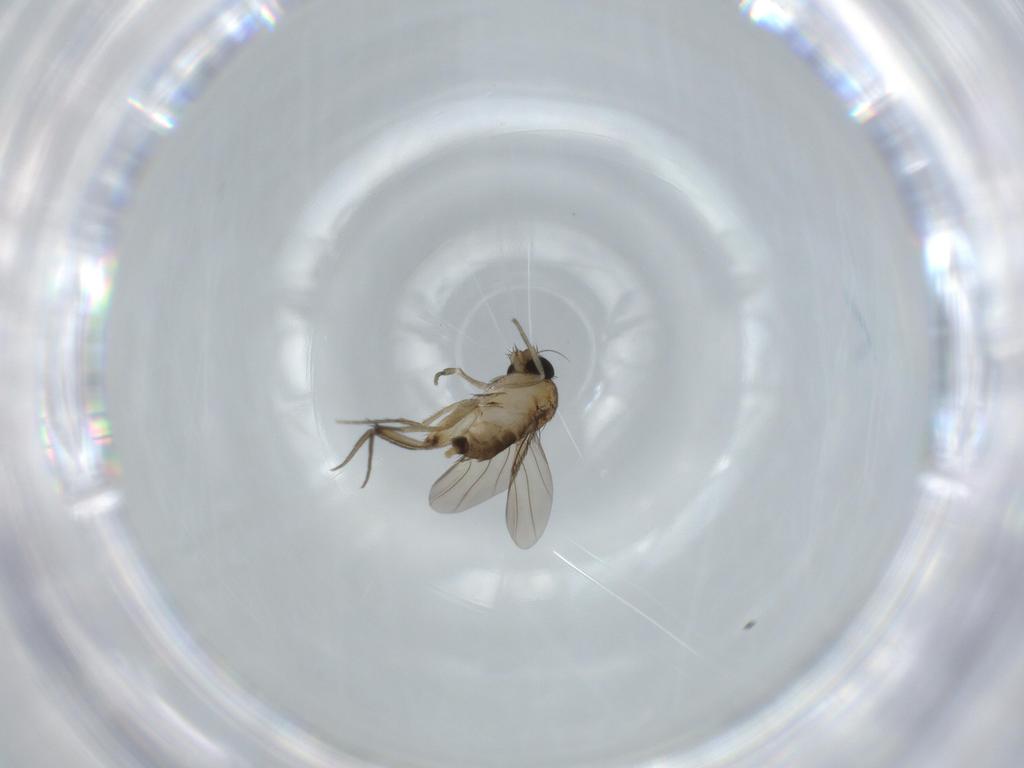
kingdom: Animalia
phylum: Arthropoda
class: Insecta
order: Diptera
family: Phoridae
